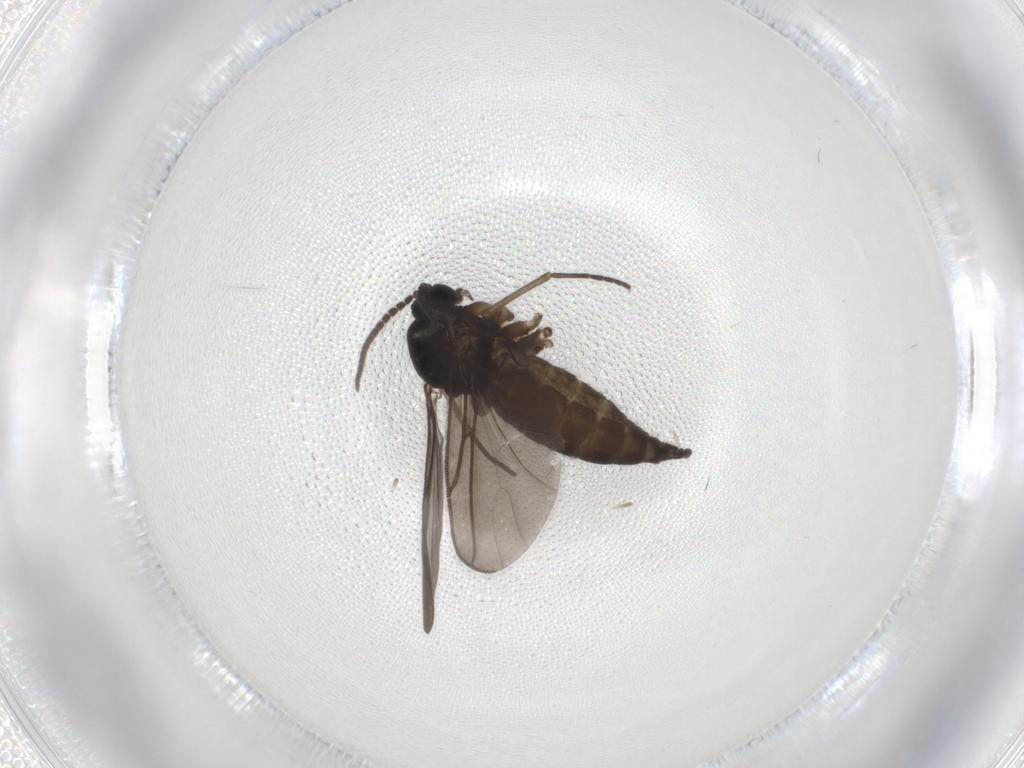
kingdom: Animalia
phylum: Arthropoda
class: Insecta
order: Diptera
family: Sciaridae
